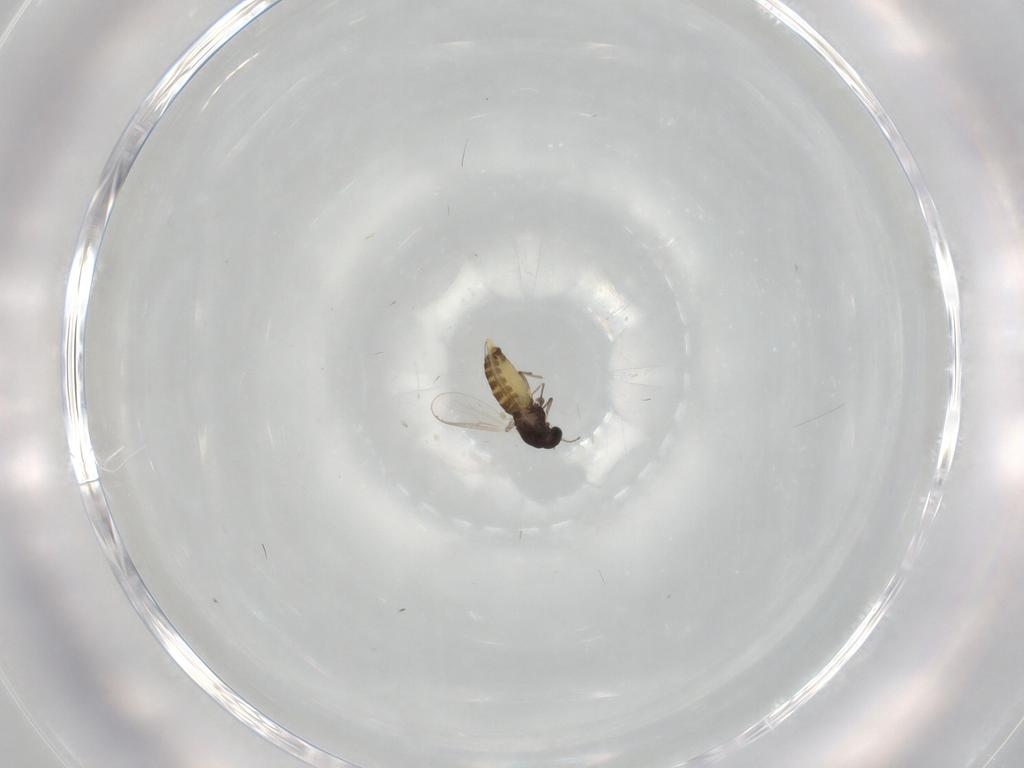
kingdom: Animalia
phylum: Arthropoda
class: Insecta
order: Diptera
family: Chironomidae
